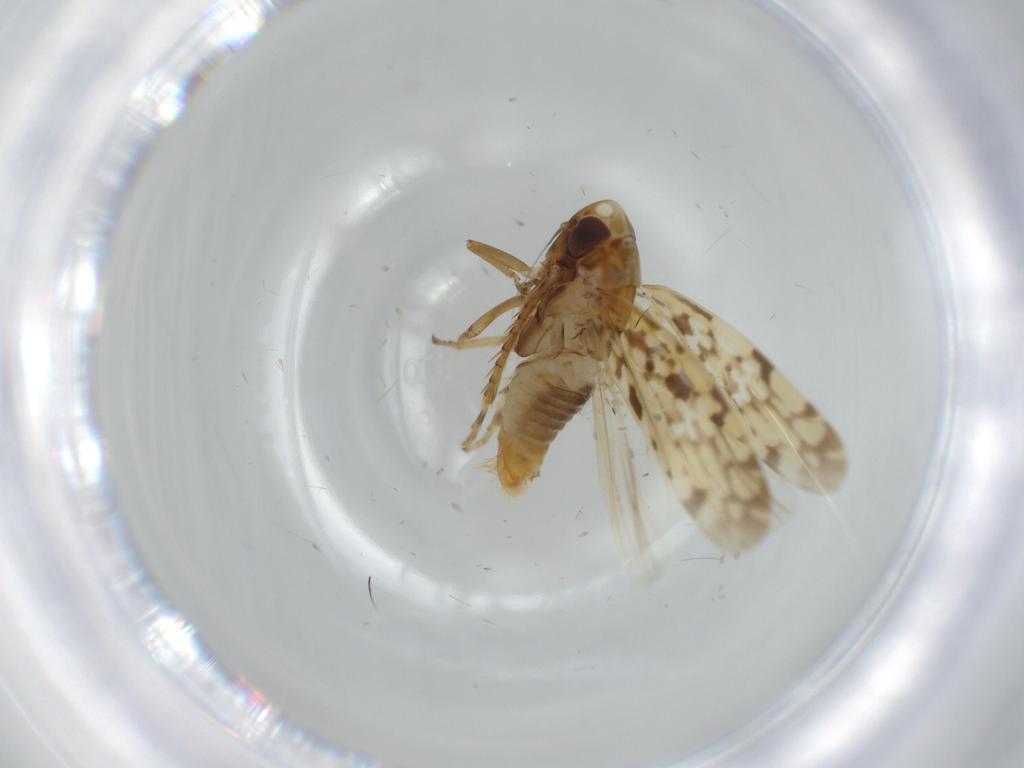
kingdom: Animalia
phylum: Arthropoda
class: Insecta
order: Hemiptera
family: Cicadellidae
